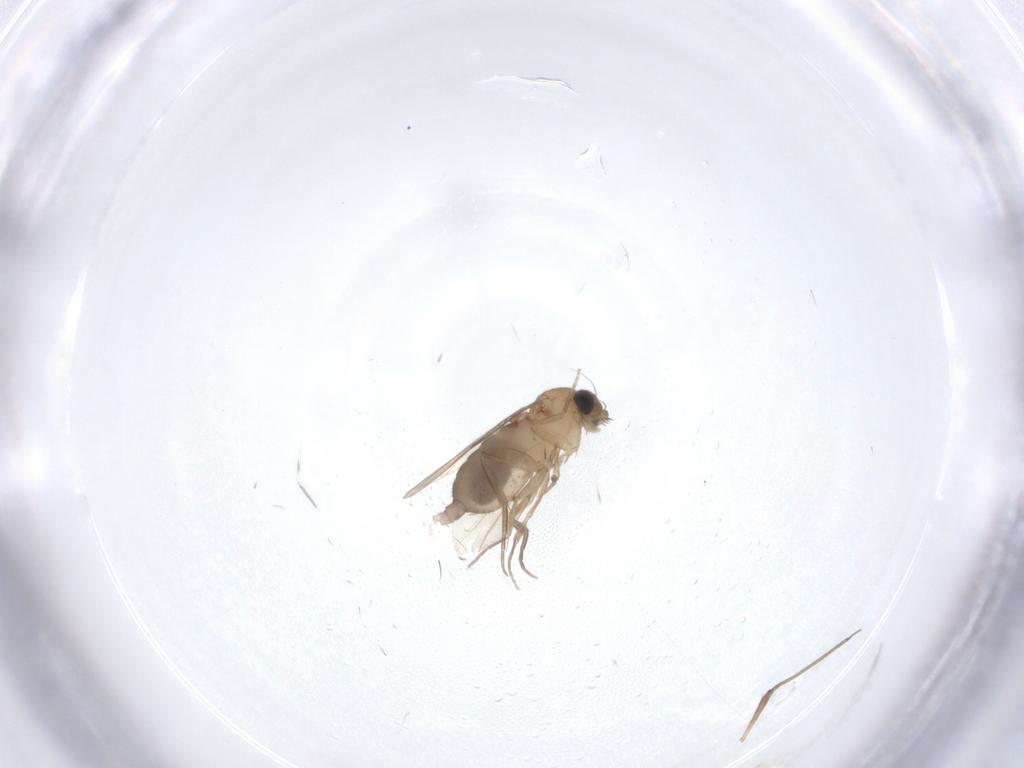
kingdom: Animalia
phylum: Arthropoda
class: Insecta
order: Diptera
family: Phoridae
